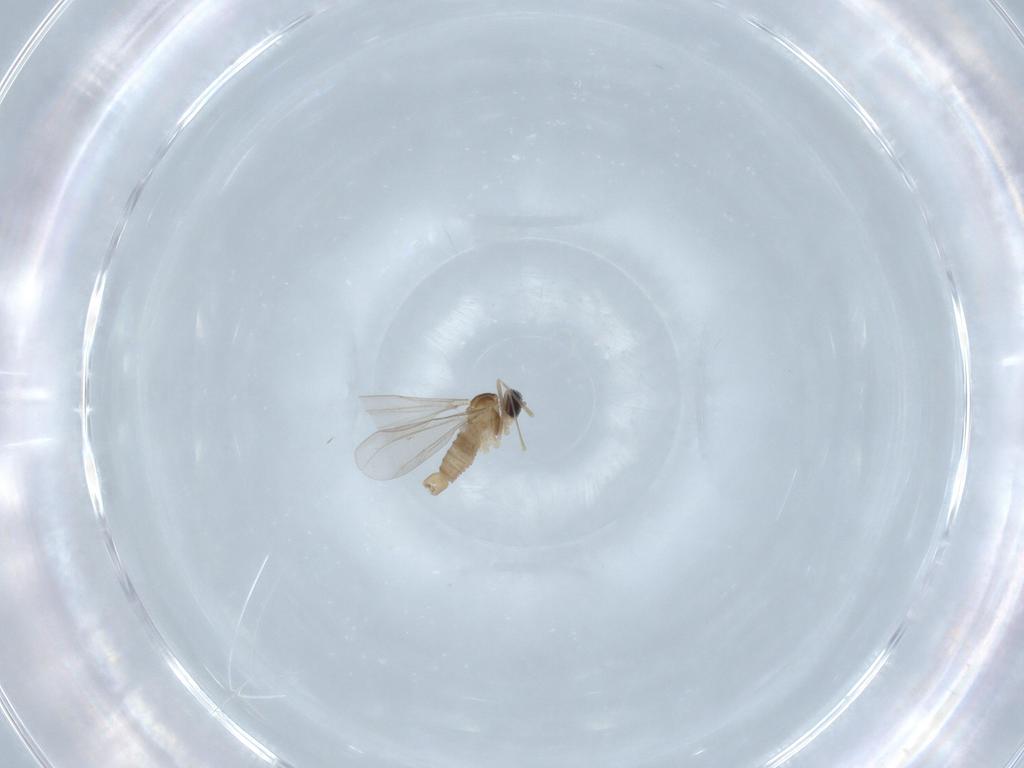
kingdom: Animalia
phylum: Arthropoda
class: Insecta
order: Diptera
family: Cecidomyiidae
